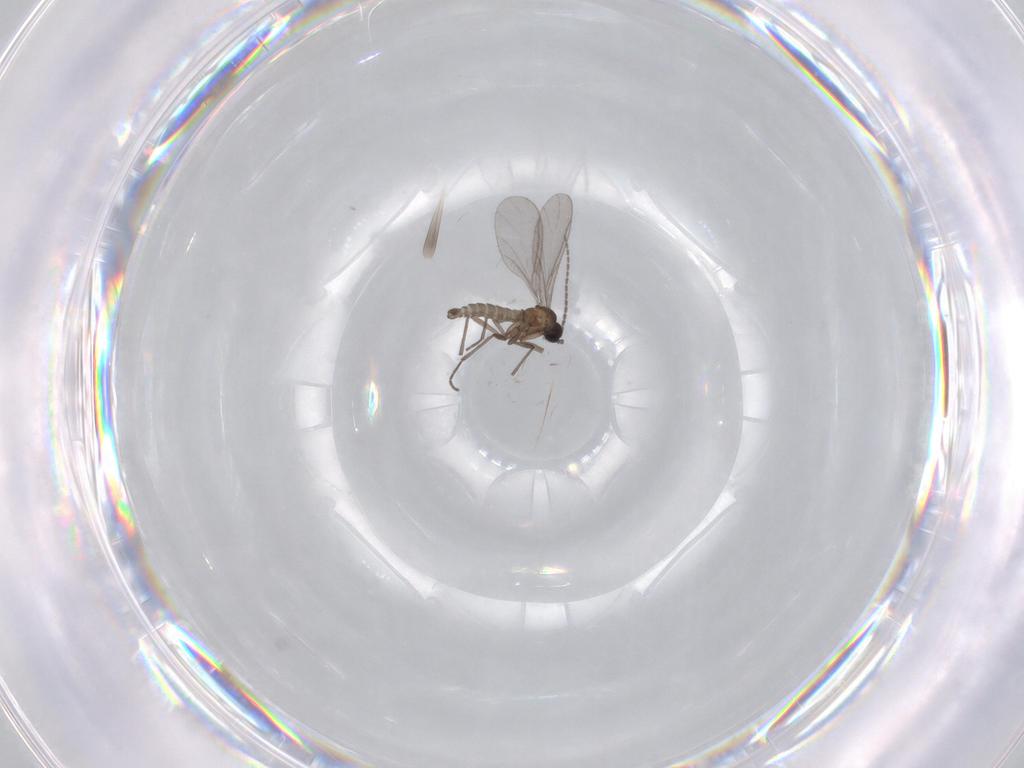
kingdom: Animalia
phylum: Arthropoda
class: Insecta
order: Diptera
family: Sciaridae
